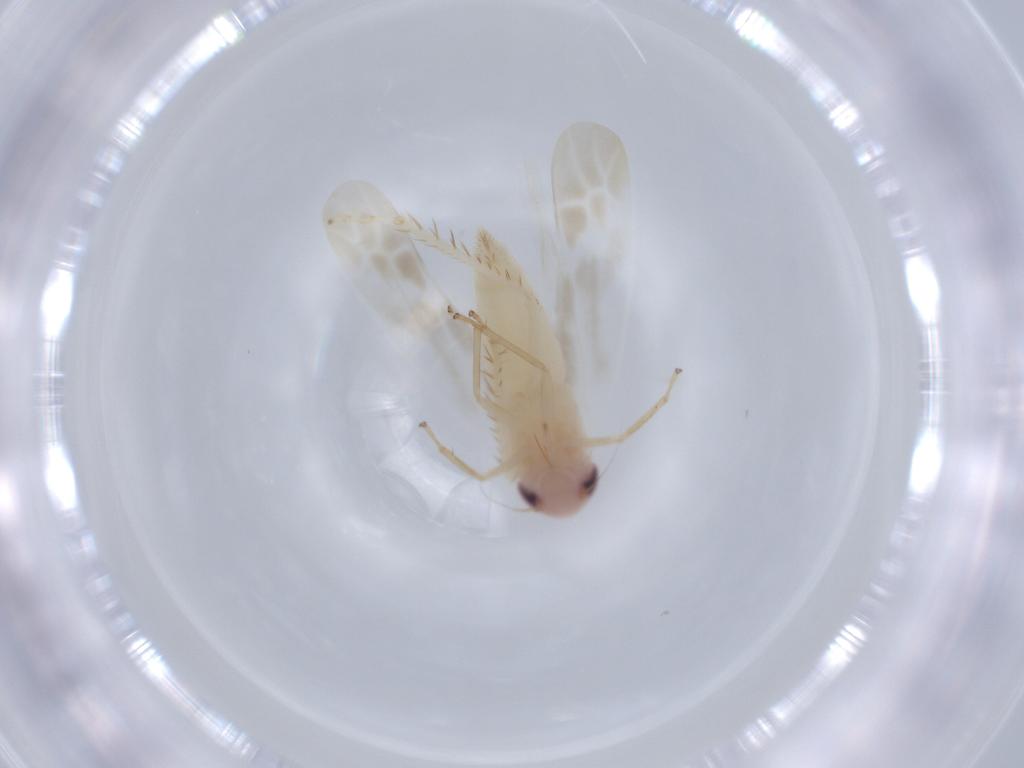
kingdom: Animalia
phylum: Arthropoda
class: Insecta
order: Hemiptera
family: Cicadellidae
